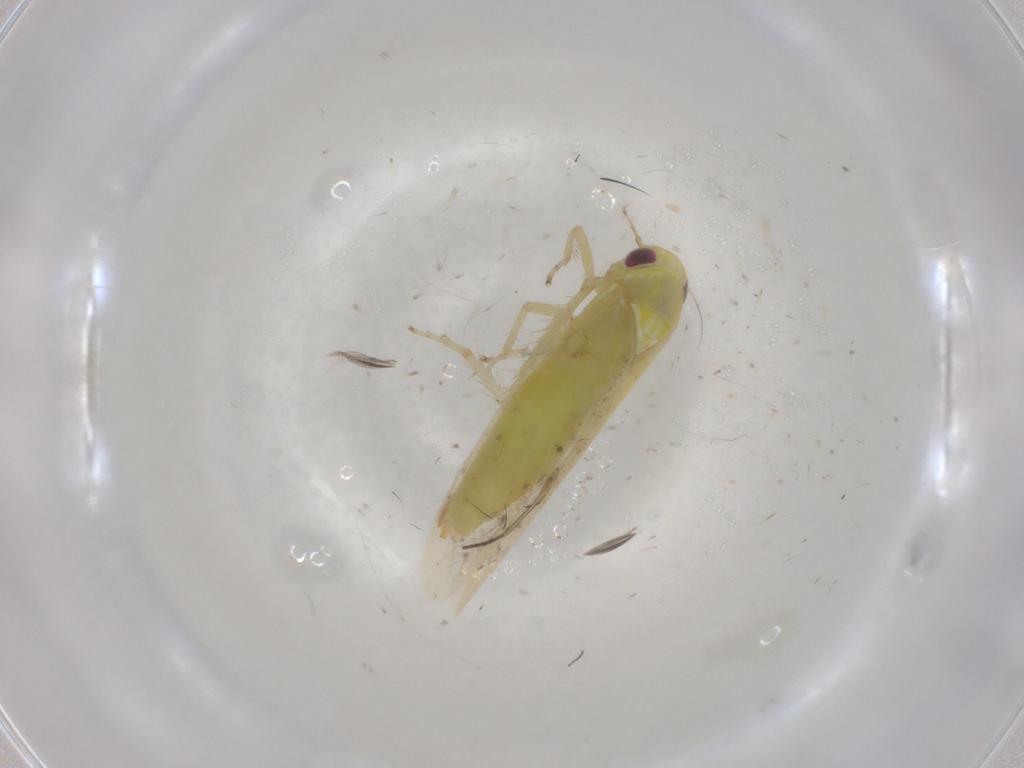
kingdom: Animalia
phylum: Arthropoda
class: Insecta
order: Hemiptera
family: Cicadellidae
